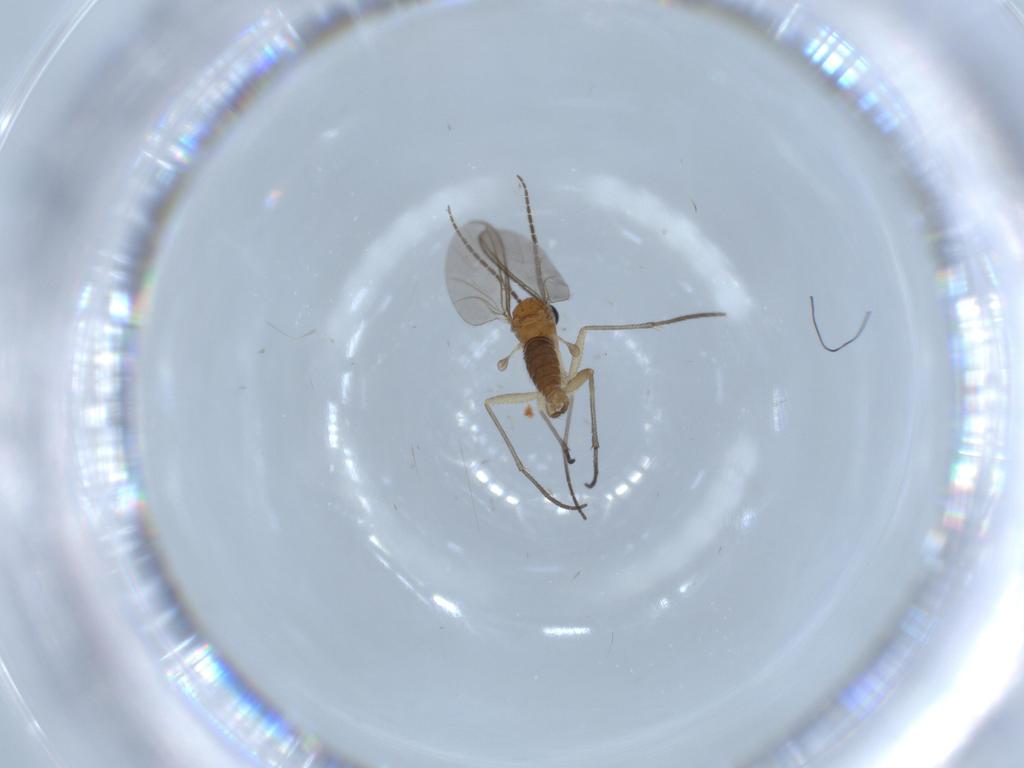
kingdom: Animalia
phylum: Arthropoda
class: Insecta
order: Diptera
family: Sciaridae
